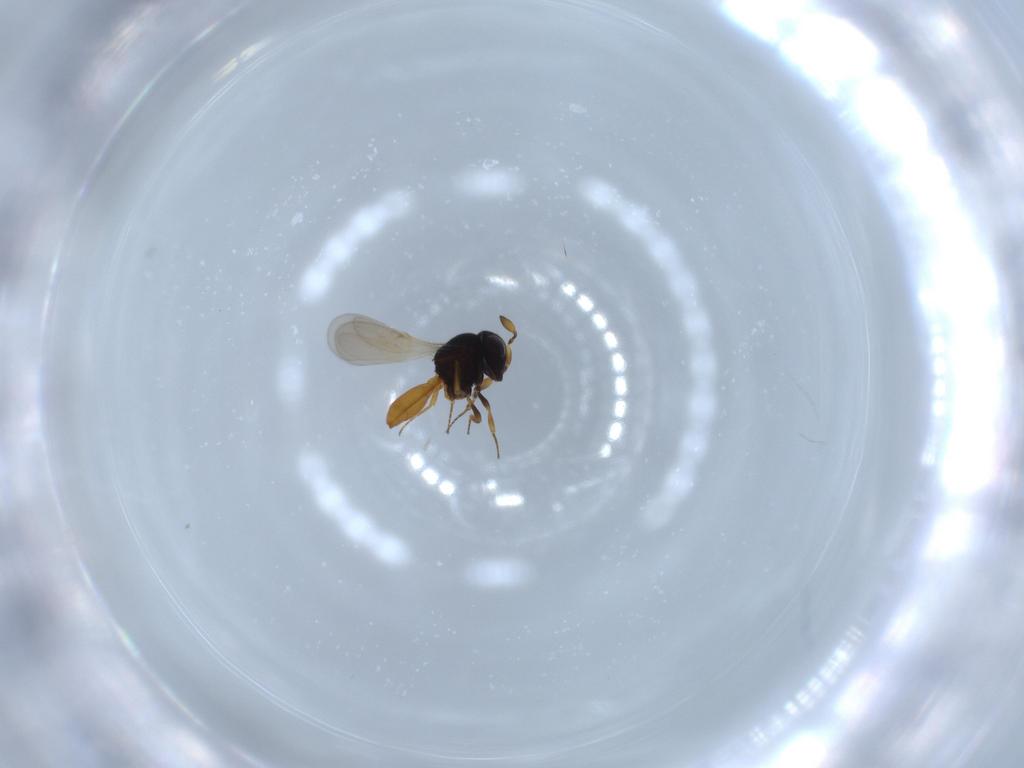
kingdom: Animalia
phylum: Arthropoda
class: Insecta
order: Hymenoptera
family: Scelionidae
